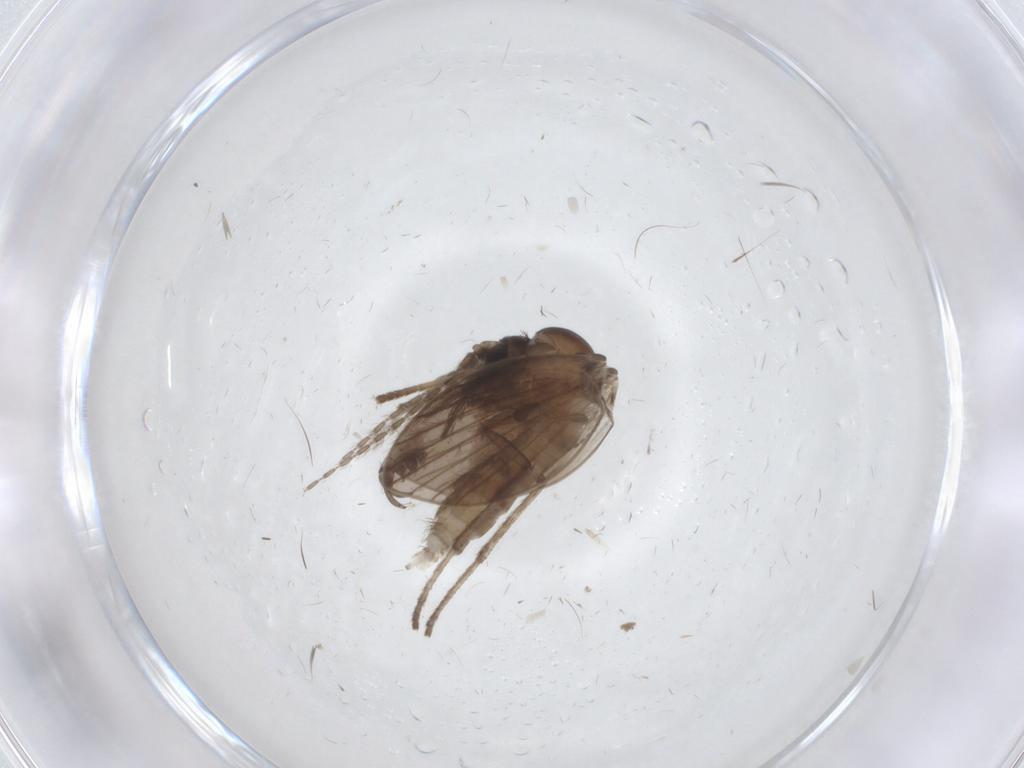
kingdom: Animalia
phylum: Arthropoda
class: Insecta
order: Diptera
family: Psychodidae
